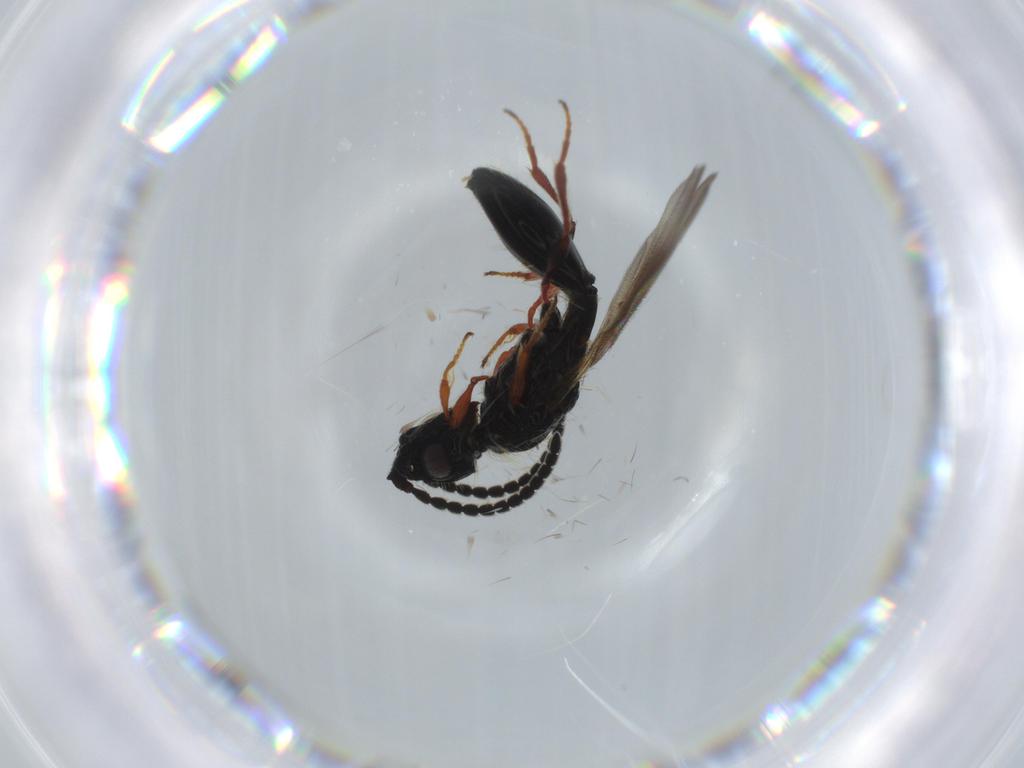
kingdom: Animalia
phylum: Arthropoda
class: Insecta
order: Hymenoptera
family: Diapriidae
